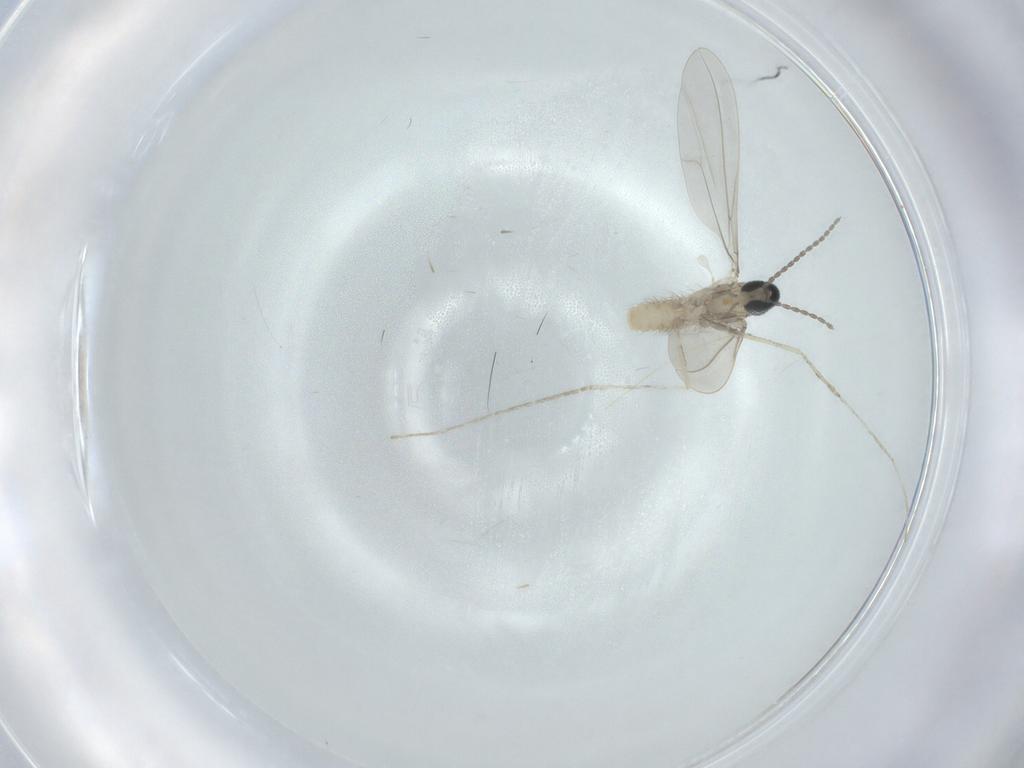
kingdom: Animalia
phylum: Arthropoda
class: Insecta
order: Diptera
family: Cecidomyiidae
